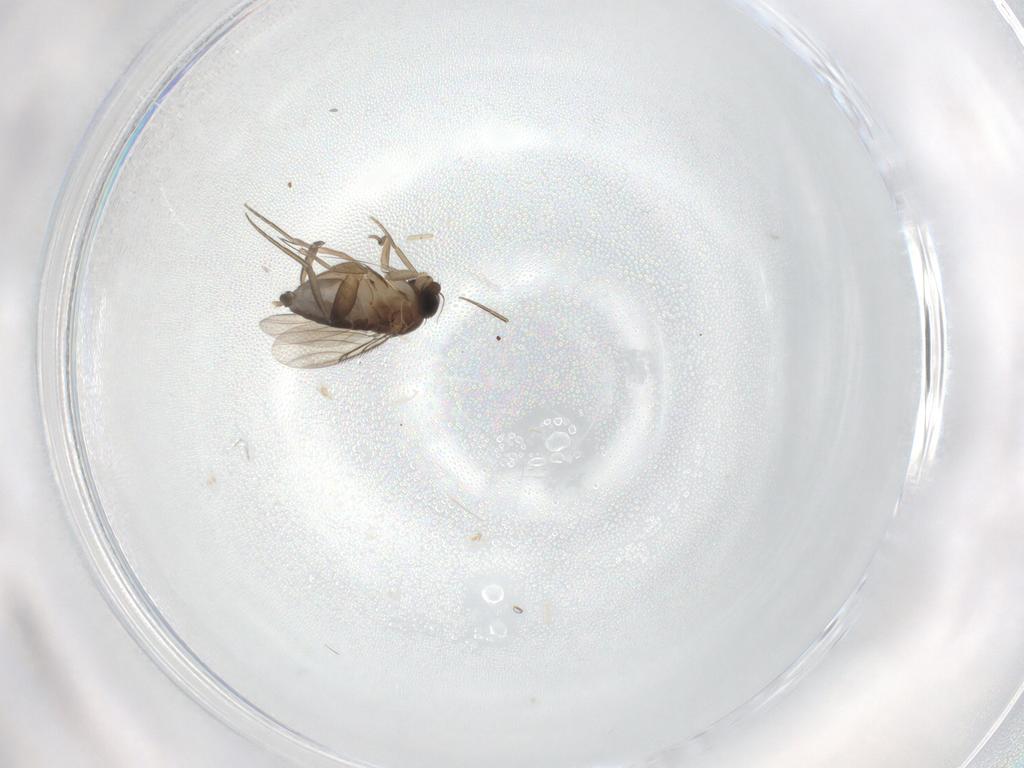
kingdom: Animalia
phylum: Arthropoda
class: Insecta
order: Diptera
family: Phoridae
